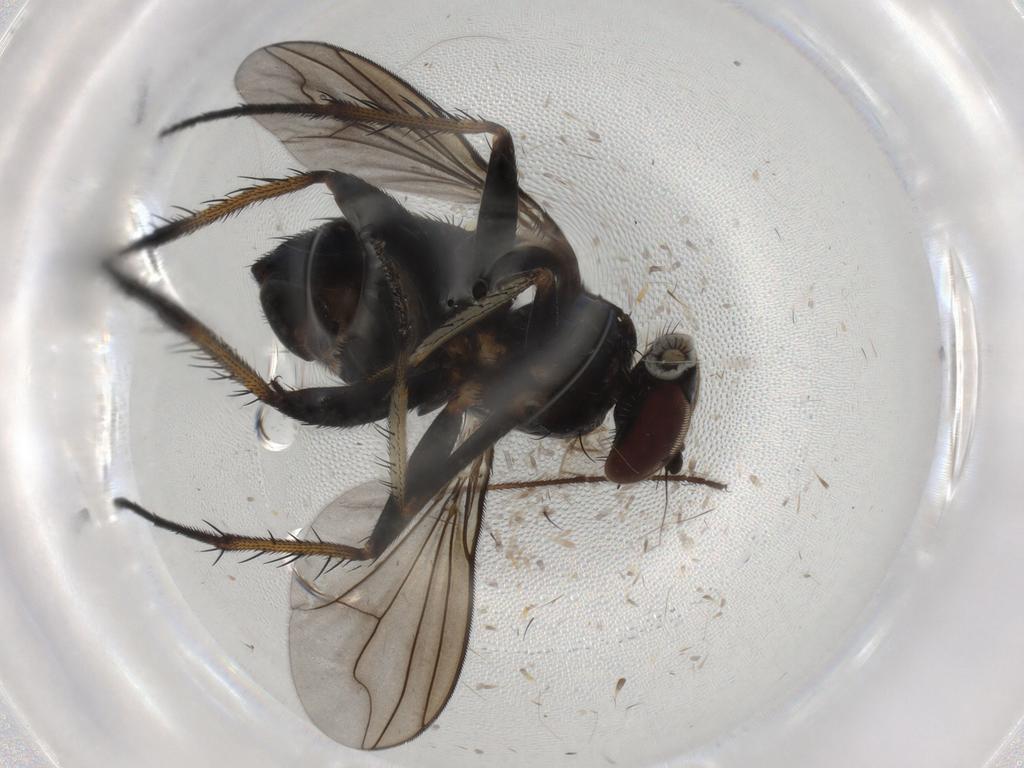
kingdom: Animalia
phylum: Arthropoda
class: Insecta
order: Diptera
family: Dolichopodidae
